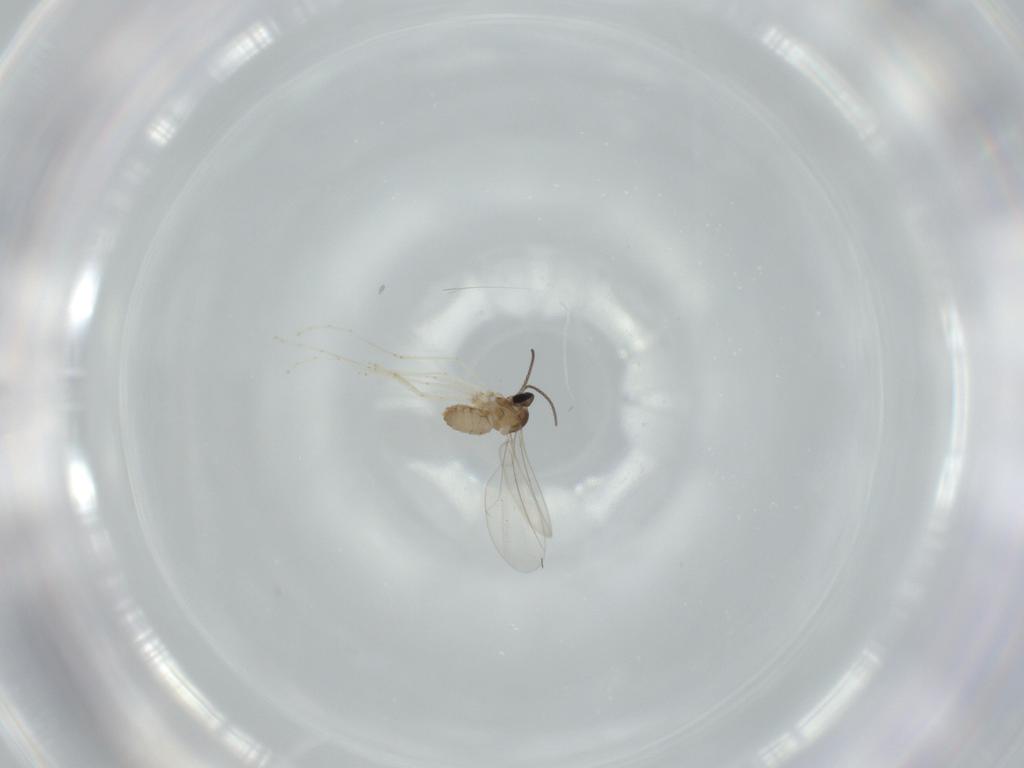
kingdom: Animalia
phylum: Arthropoda
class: Insecta
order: Diptera
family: Cecidomyiidae
